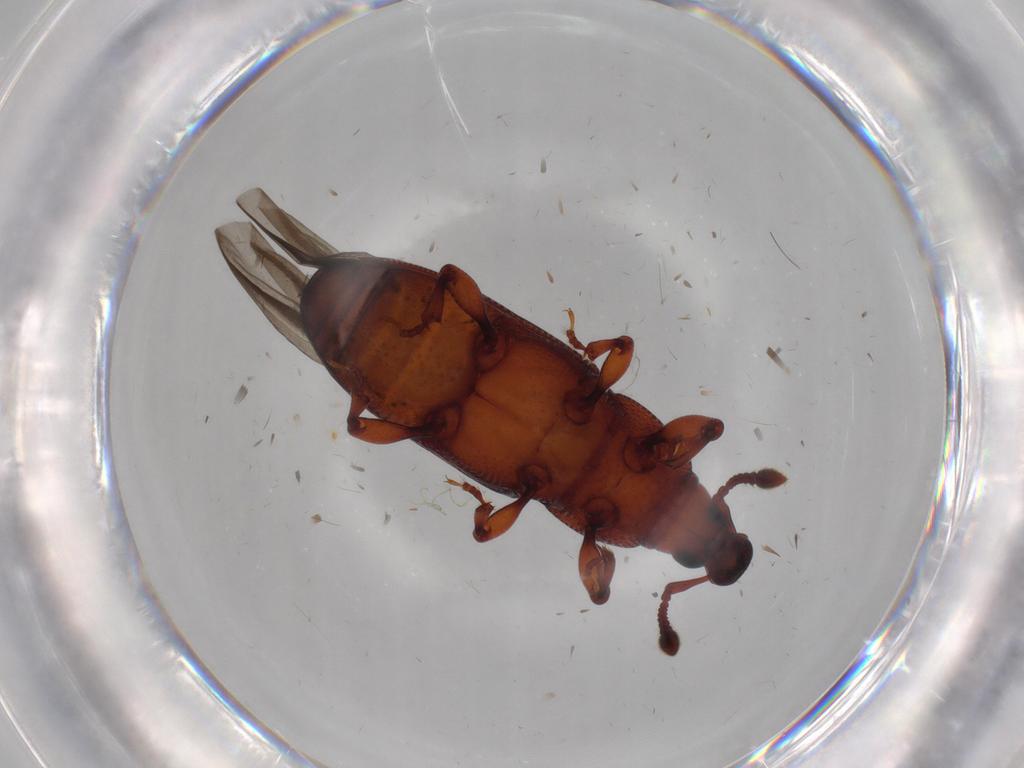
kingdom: Animalia
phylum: Arthropoda
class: Insecta
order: Coleoptera
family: Curculionidae
